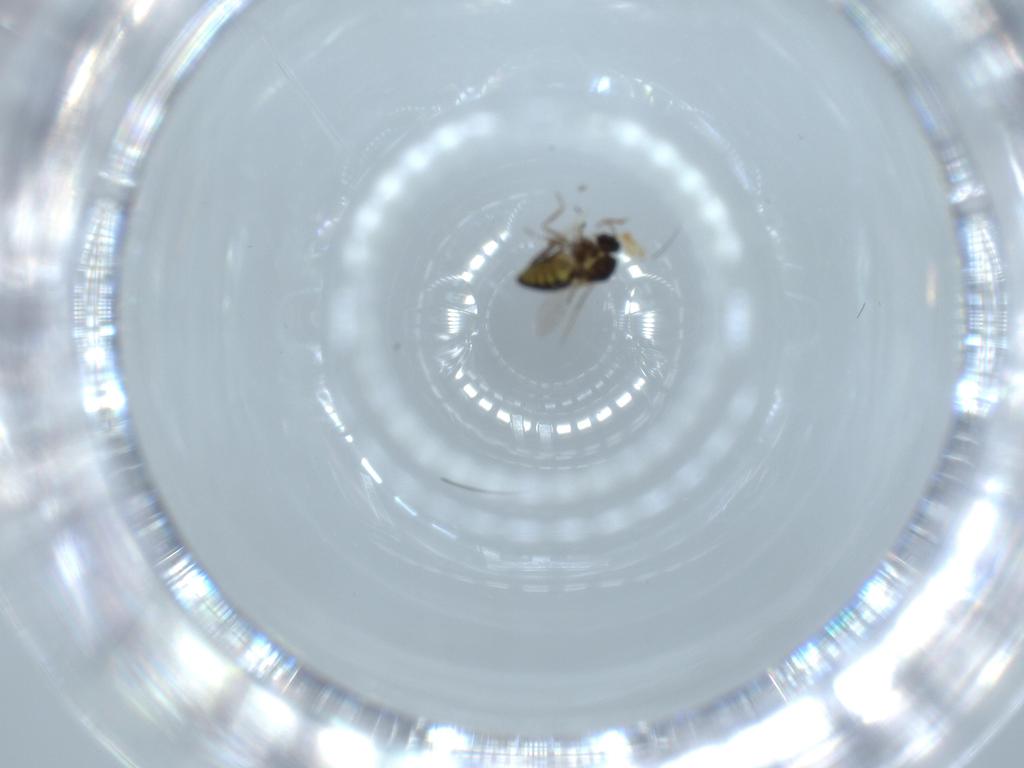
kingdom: Animalia
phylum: Arthropoda
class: Insecta
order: Diptera
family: Ceratopogonidae
